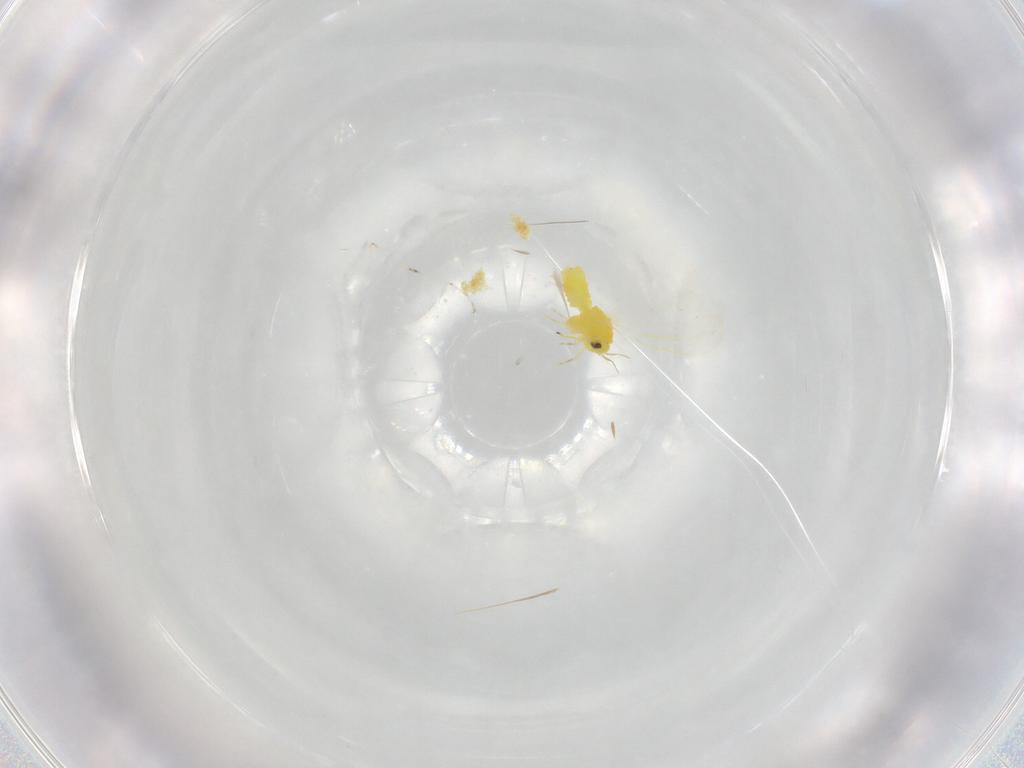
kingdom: Animalia
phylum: Arthropoda
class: Insecta
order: Hemiptera
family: Aleyrodidae
